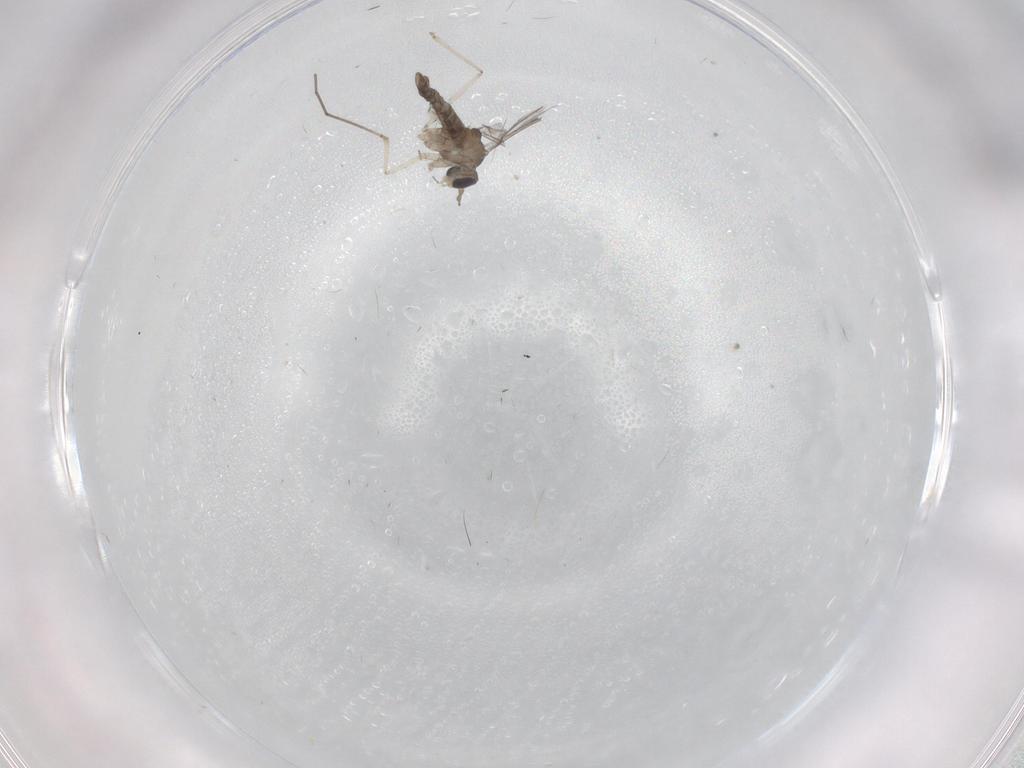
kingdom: Animalia
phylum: Arthropoda
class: Insecta
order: Diptera
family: Cecidomyiidae
